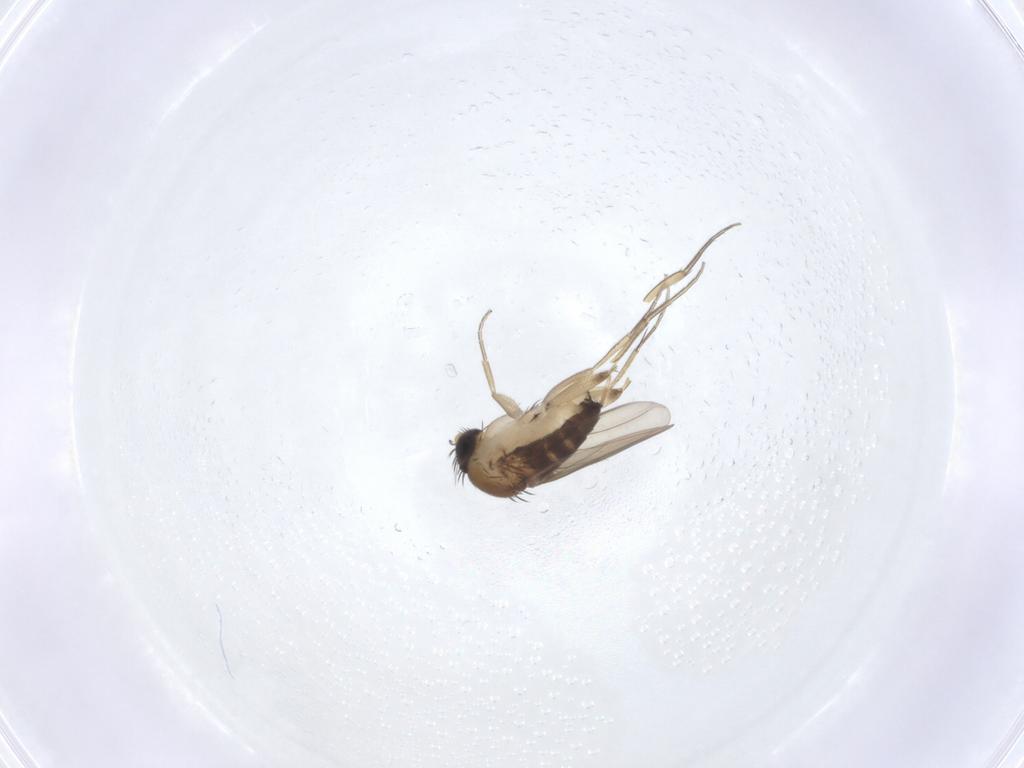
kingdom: Animalia
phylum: Arthropoda
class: Insecta
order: Diptera
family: Phoridae
